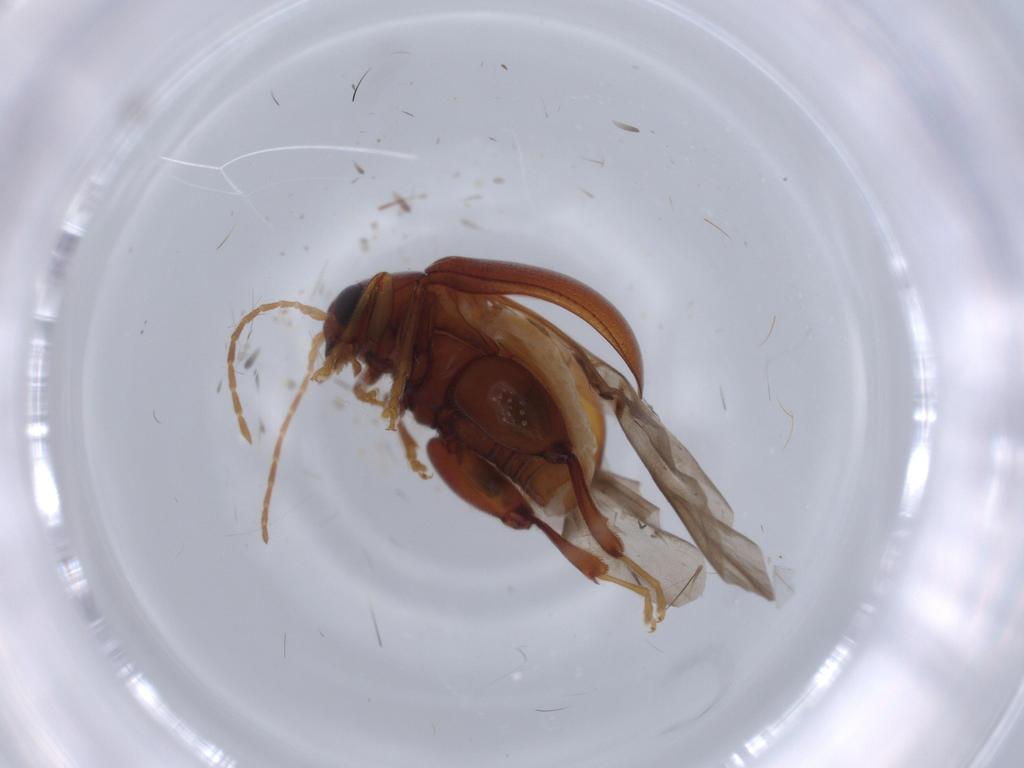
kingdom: Animalia
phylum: Arthropoda
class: Insecta
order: Coleoptera
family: Chrysomelidae
